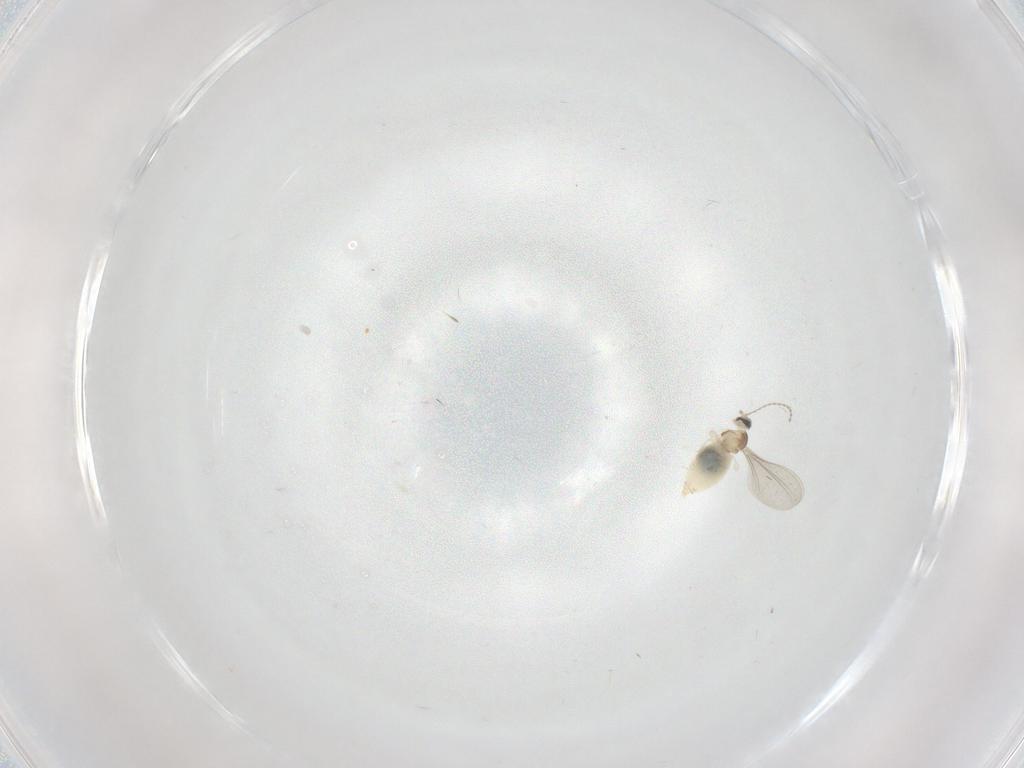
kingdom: Animalia
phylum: Arthropoda
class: Insecta
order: Diptera
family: Cecidomyiidae
